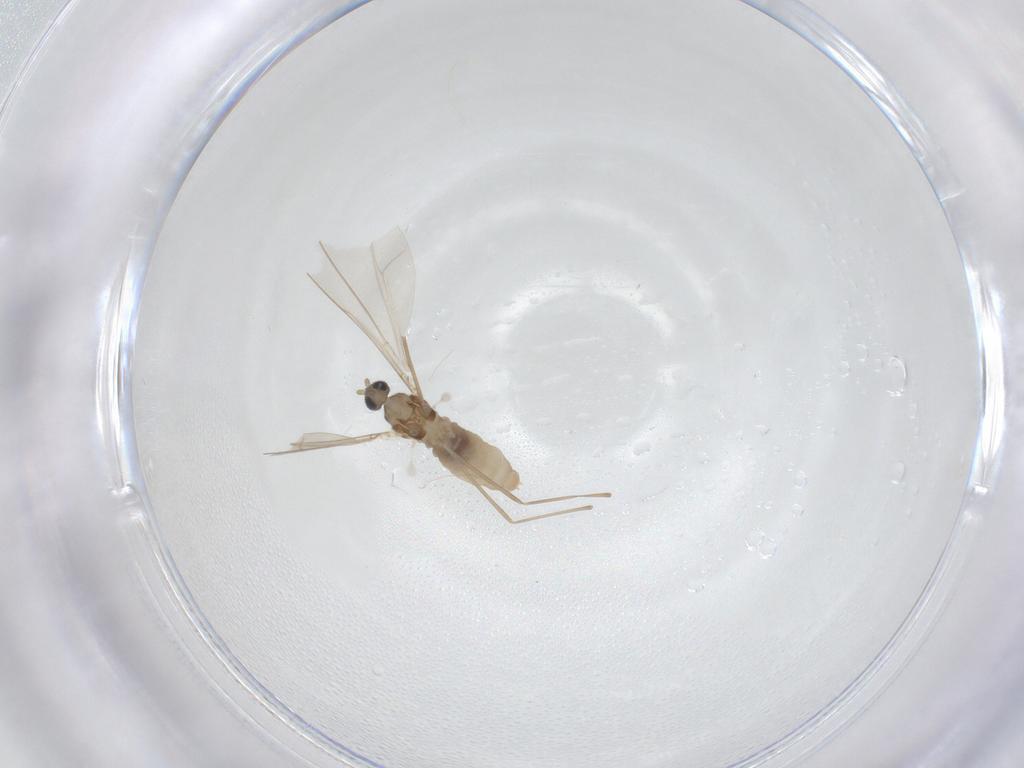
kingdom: Animalia
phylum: Arthropoda
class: Insecta
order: Diptera
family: Cecidomyiidae
